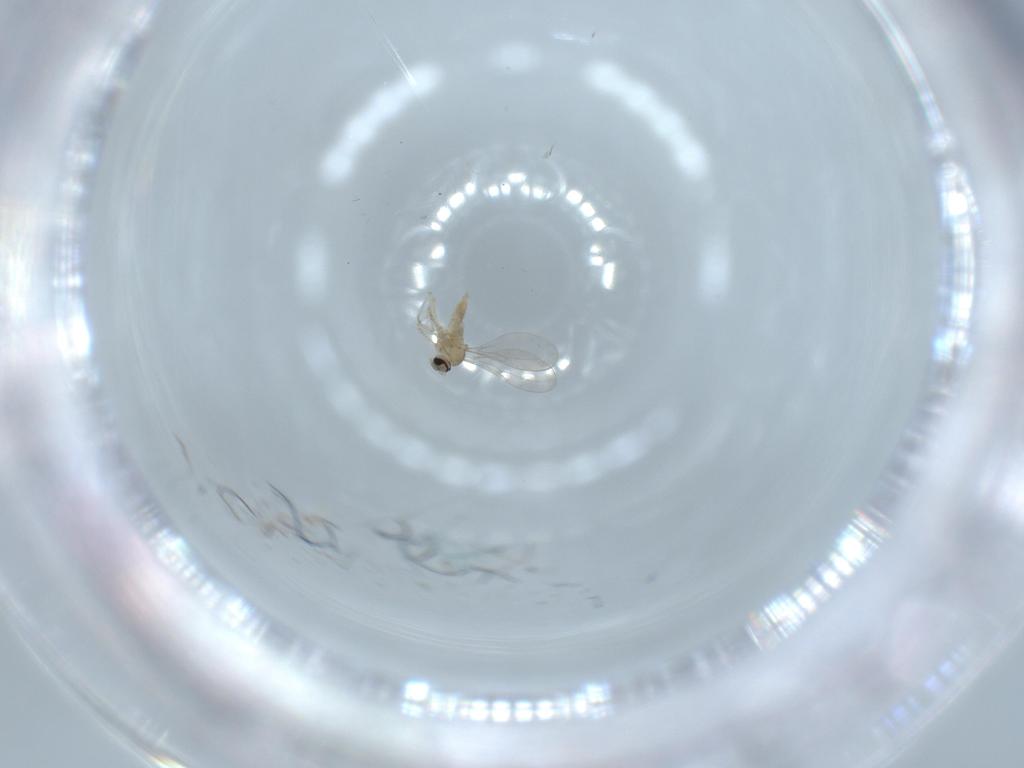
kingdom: Animalia
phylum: Arthropoda
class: Insecta
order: Diptera
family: Cecidomyiidae
